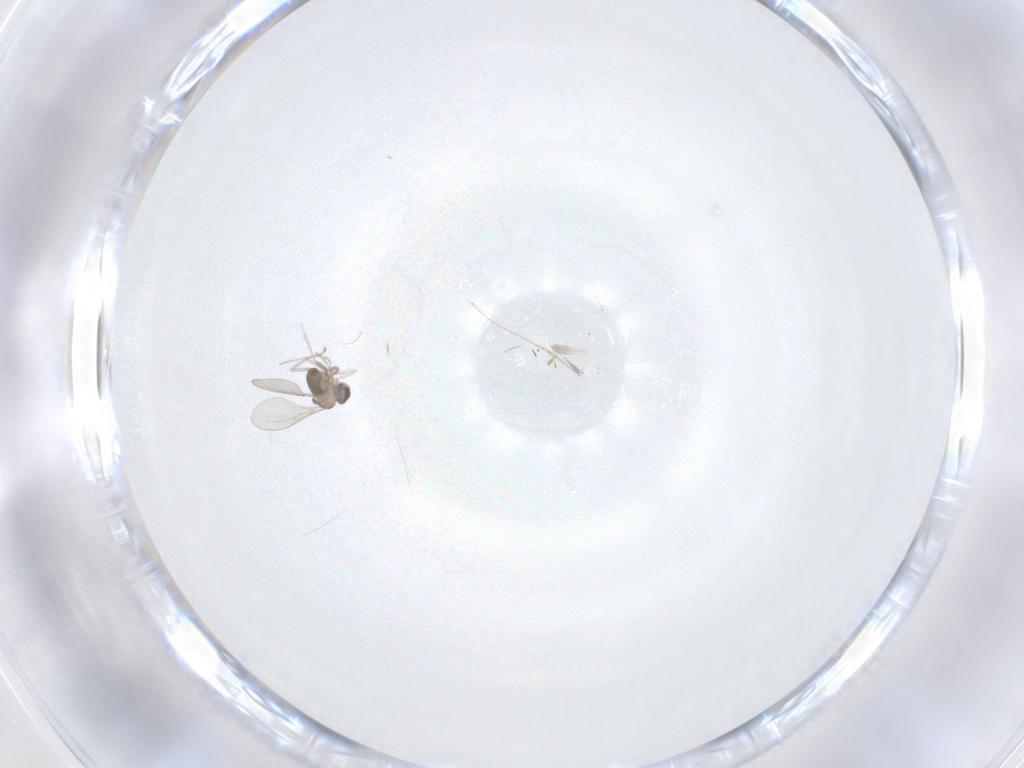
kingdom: Animalia
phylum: Arthropoda
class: Insecta
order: Diptera
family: Cecidomyiidae
